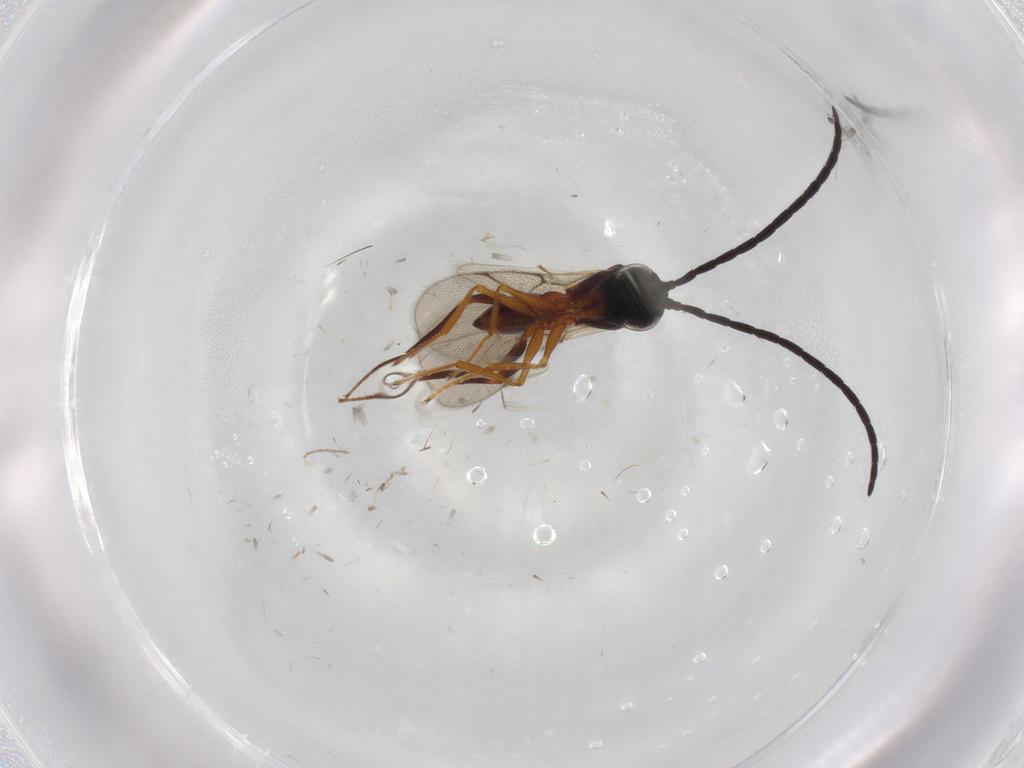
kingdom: Animalia
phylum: Arthropoda
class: Insecta
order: Hymenoptera
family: Figitidae
